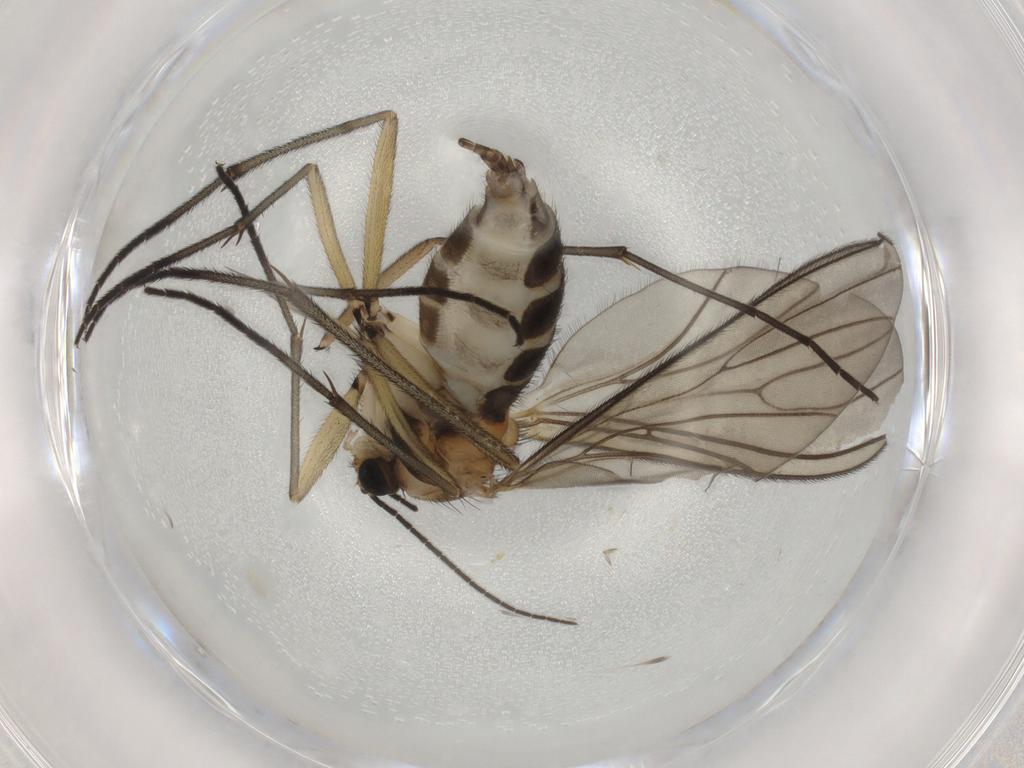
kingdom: Animalia
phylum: Arthropoda
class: Insecta
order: Diptera
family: Sciaridae
